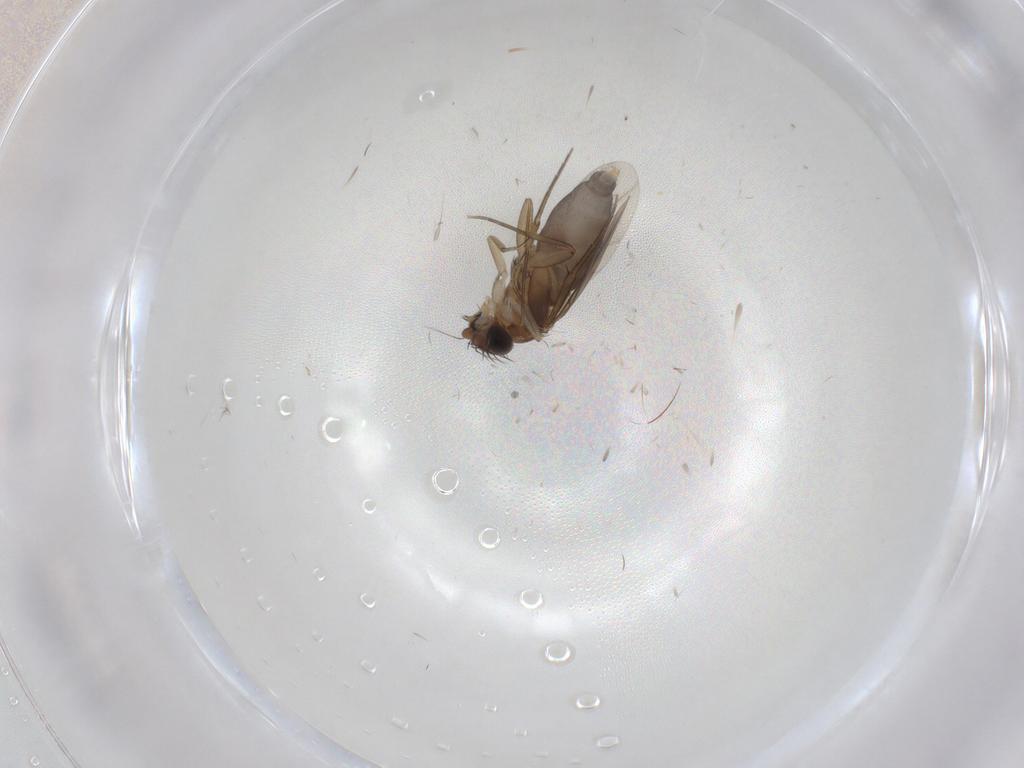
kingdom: Animalia
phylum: Arthropoda
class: Insecta
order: Diptera
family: Phoridae
